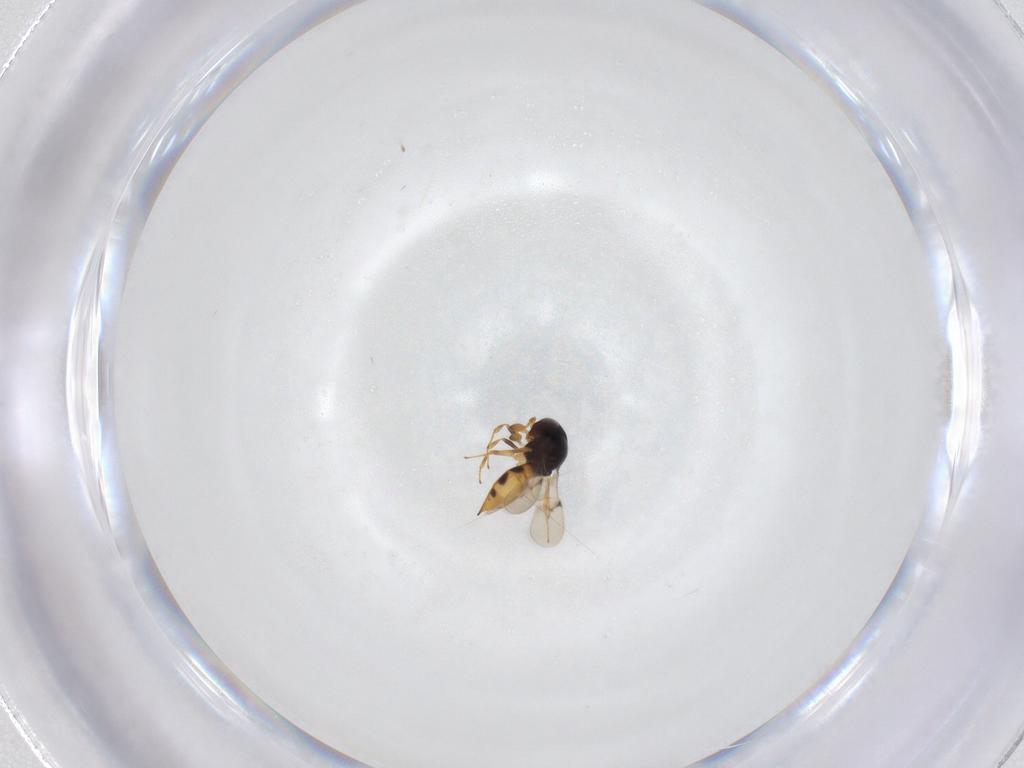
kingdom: Animalia
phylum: Arthropoda
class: Insecta
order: Hymenoptera
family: Scelionidae
